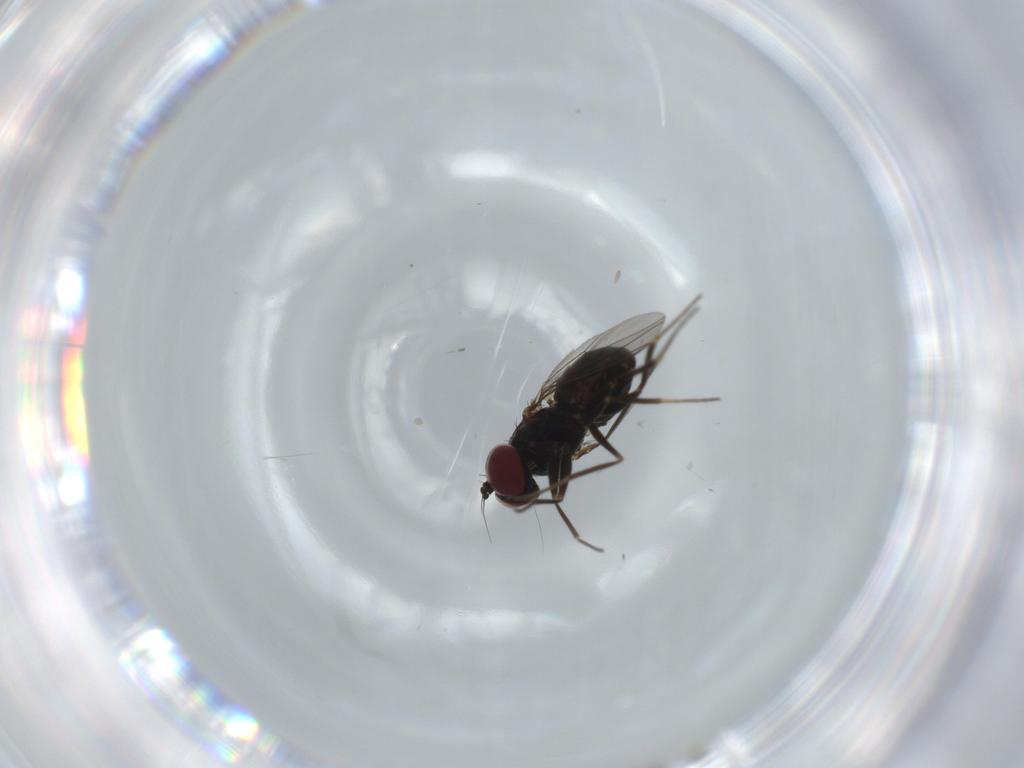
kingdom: Animalia
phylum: Arthropoda
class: Insecta
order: Diptera
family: Dolichopodidae
